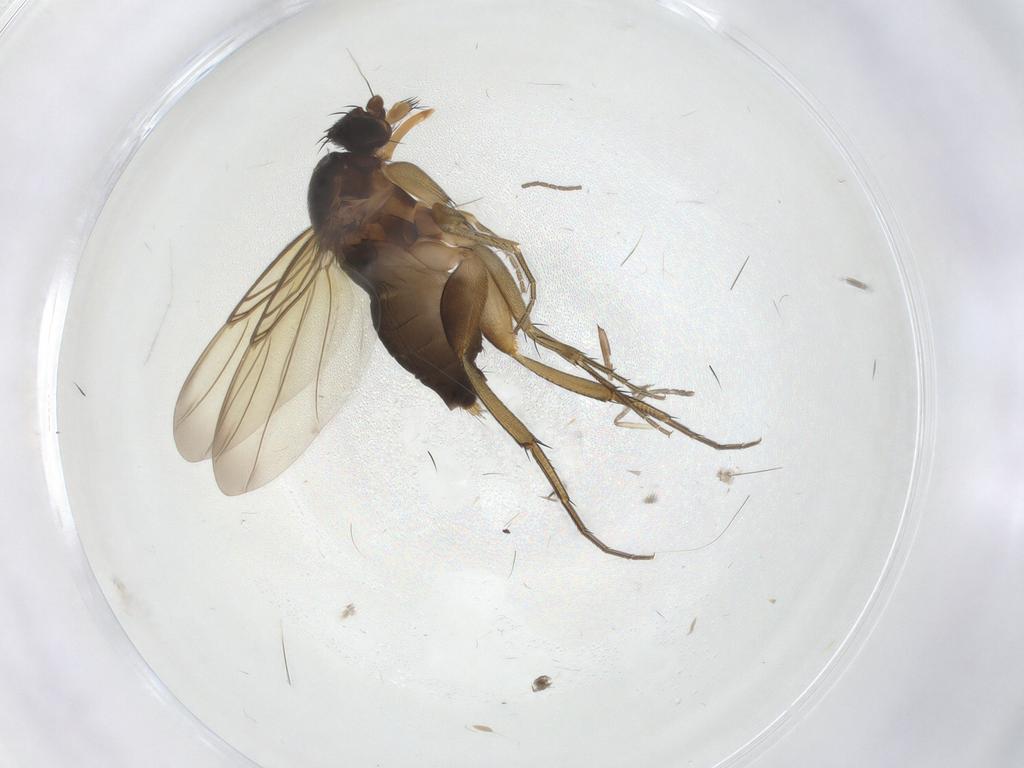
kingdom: Animalia
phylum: Arthropoda
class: Insecta
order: Diptera
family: Phoridae
